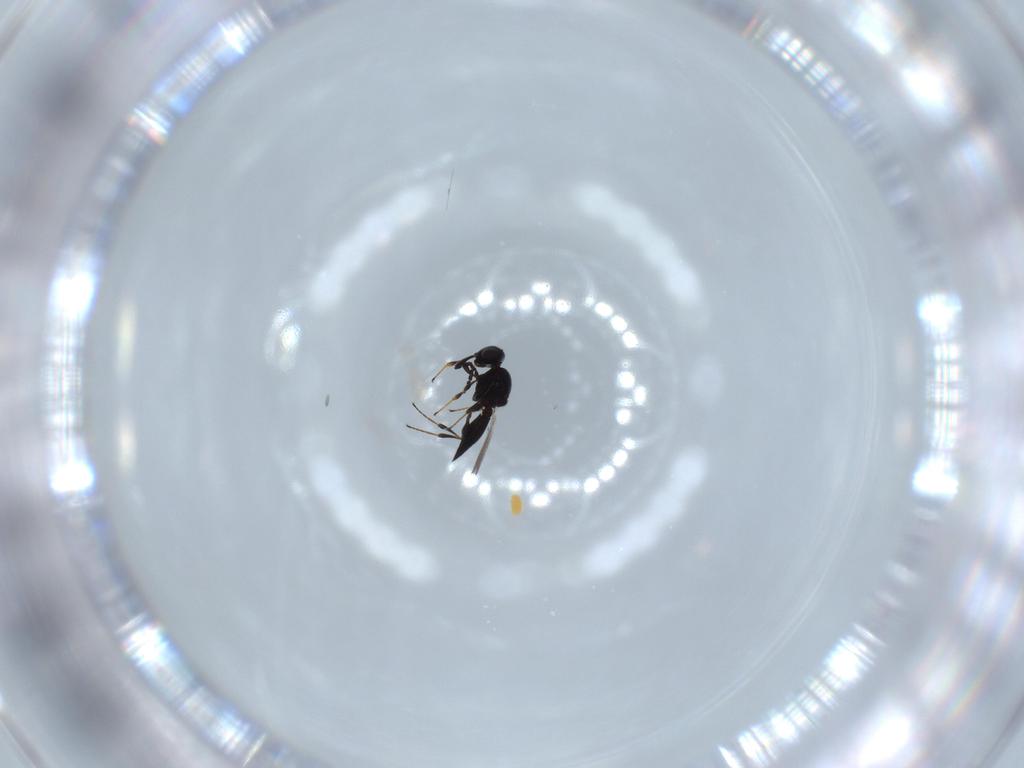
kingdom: Animalia
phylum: Arthropoda
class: Insecta
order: Diptera
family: Mythicomyiidae
